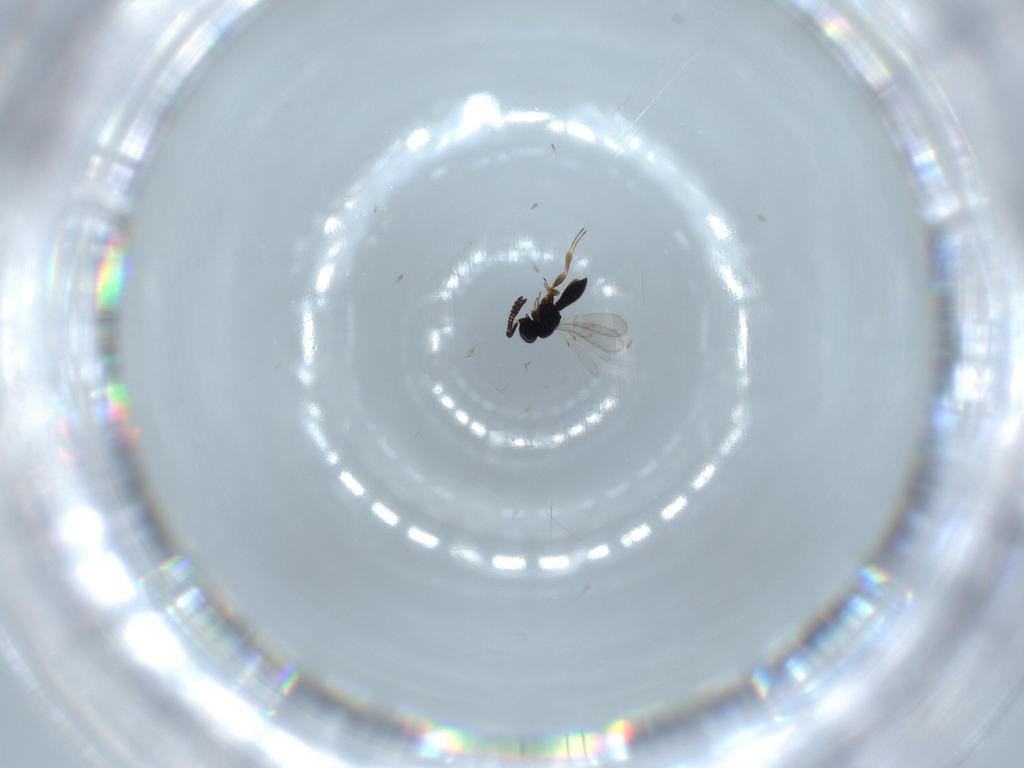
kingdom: Animalia
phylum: Arthropoda
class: Insecta
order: Hymenoptera
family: Scelionidae
